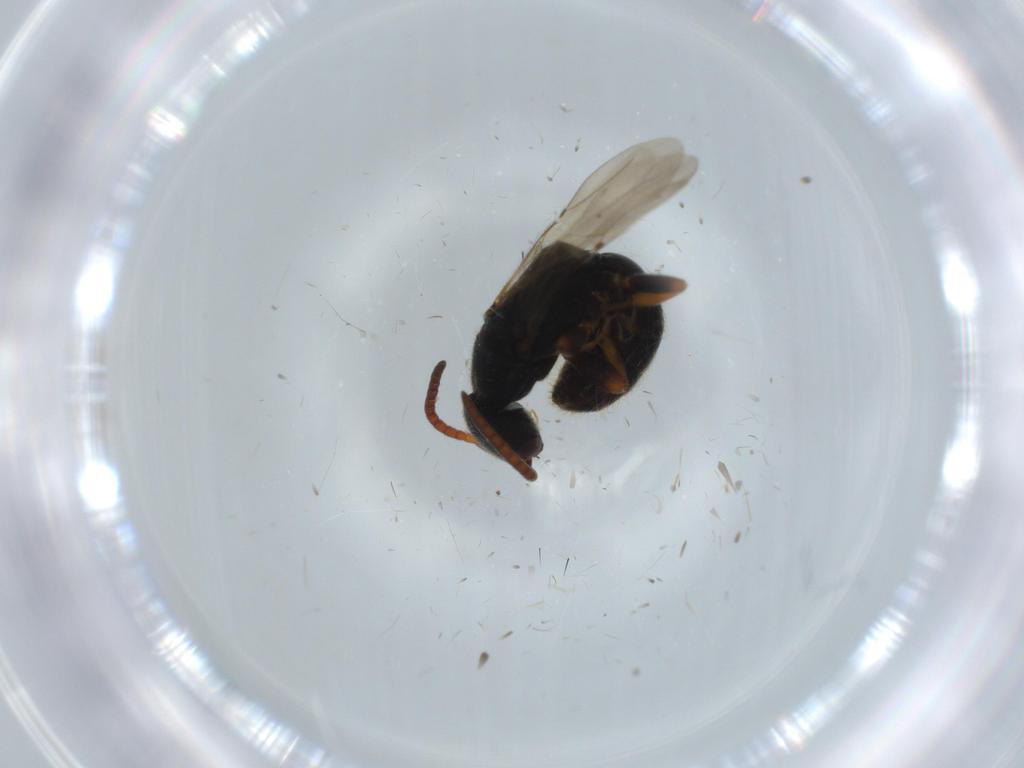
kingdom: Animalia
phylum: Arthropoda
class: Insecta
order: Hymenoptera
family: Bethylidae
